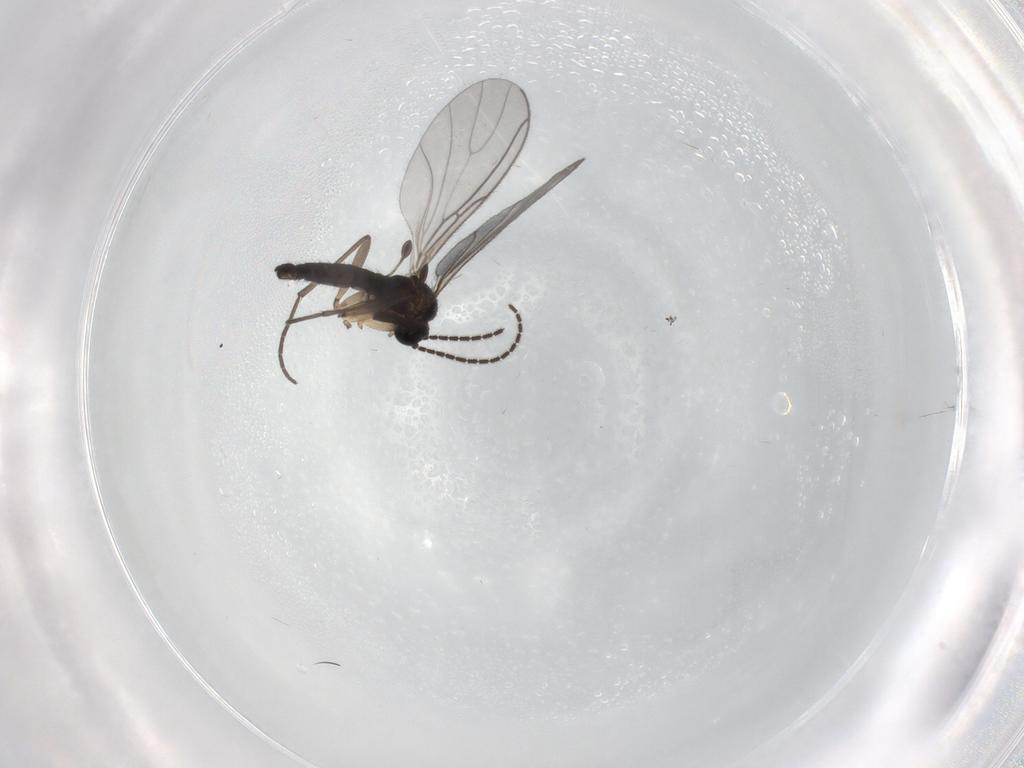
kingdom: Animalia
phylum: Arthropoda
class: Insecta
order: Diptera
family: Sciaridae
